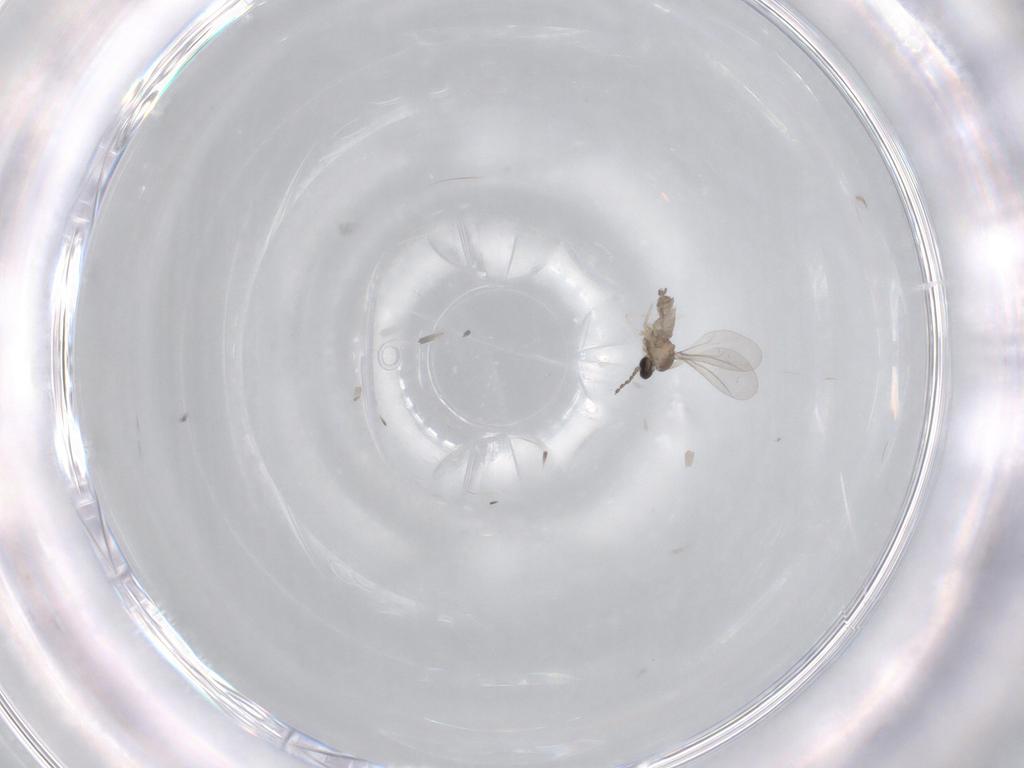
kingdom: Animalia
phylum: Arthropoda
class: Insecta
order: Diptera
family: Cecidomyiidae
